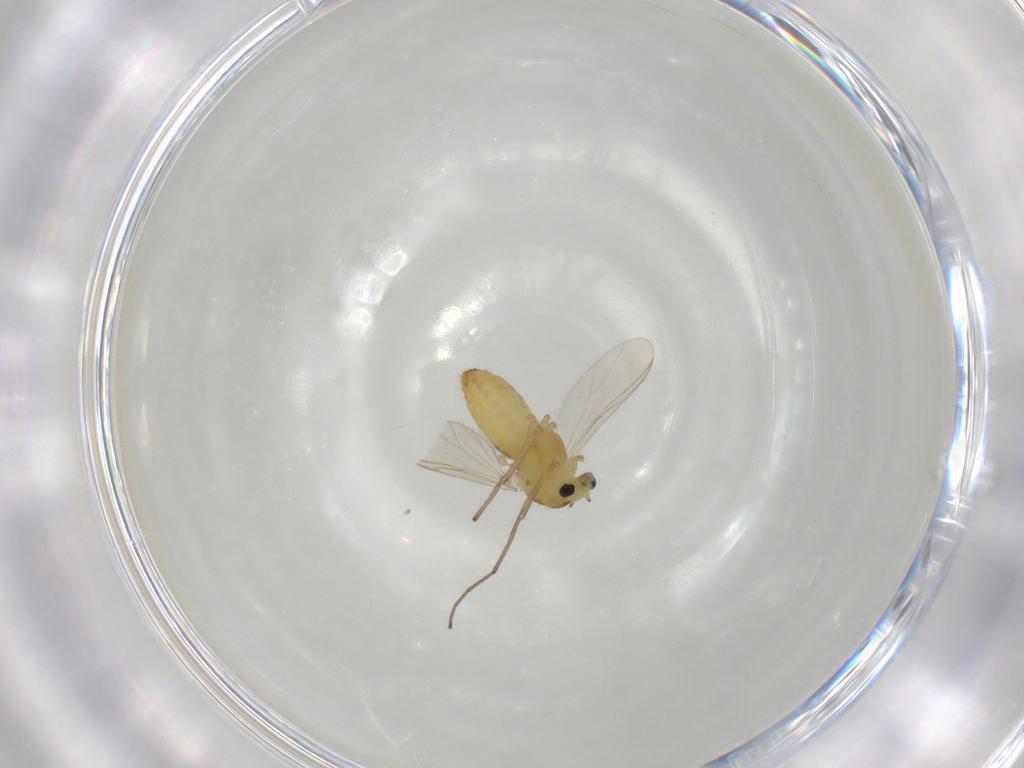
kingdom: Animalia
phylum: Arthropoda
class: Insecta
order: Diptera
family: Chironomidae
